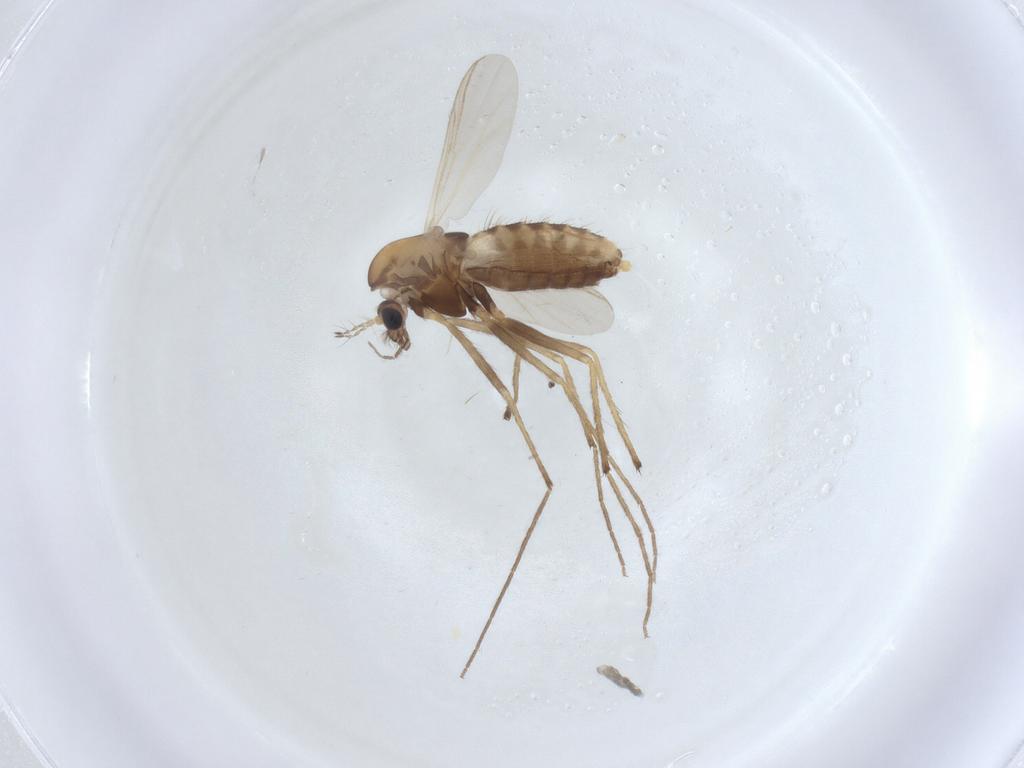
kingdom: Animalia
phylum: Arthropoda
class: Insecta
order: Diptera
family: Chironomidae
